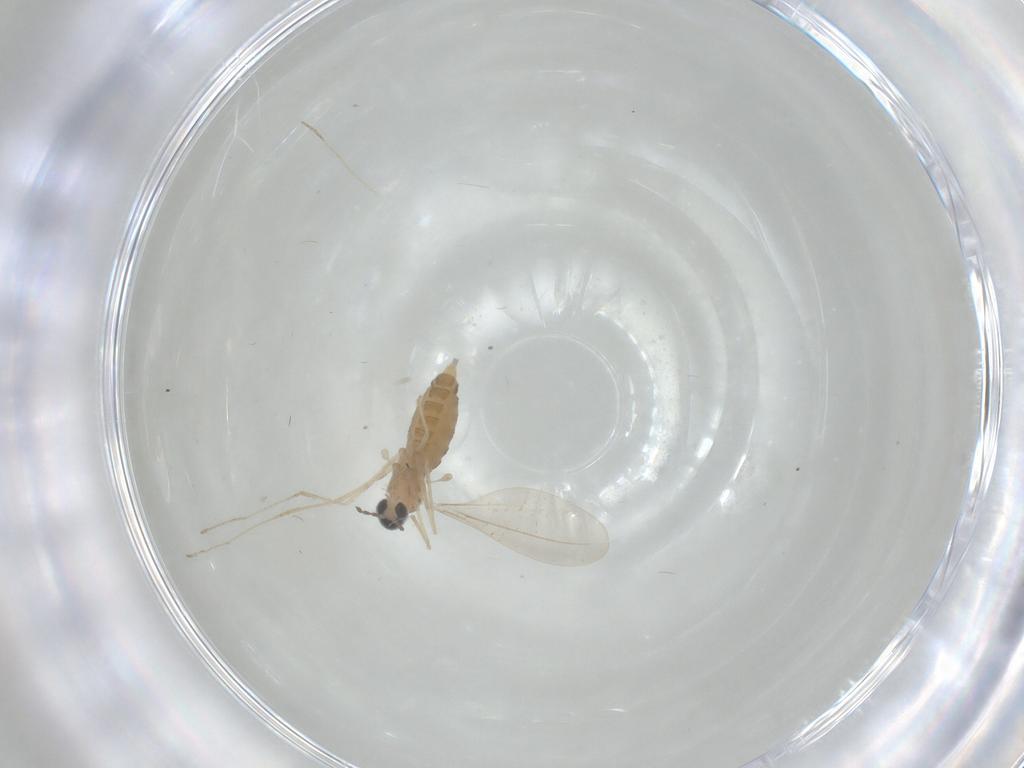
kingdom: Animalia
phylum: Arthropoda
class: Insecta
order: Diptera
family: Cecidomyiidae
